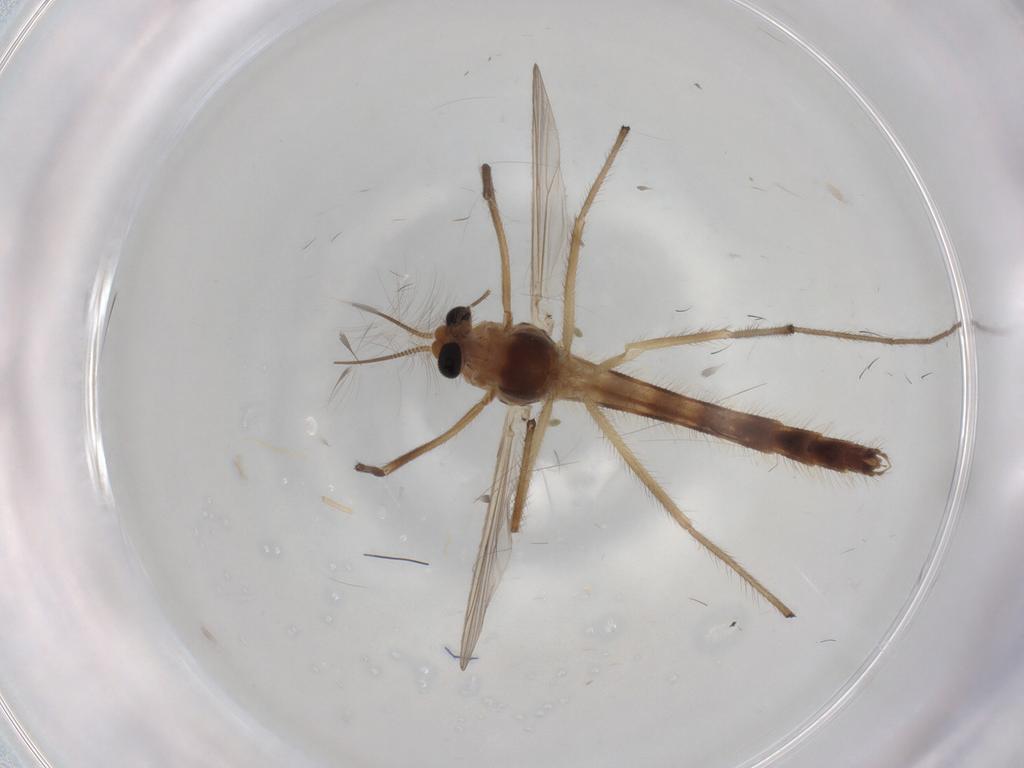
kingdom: Animalia
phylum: Arthropoda
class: Insecta
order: Diptera
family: Chironomidae
